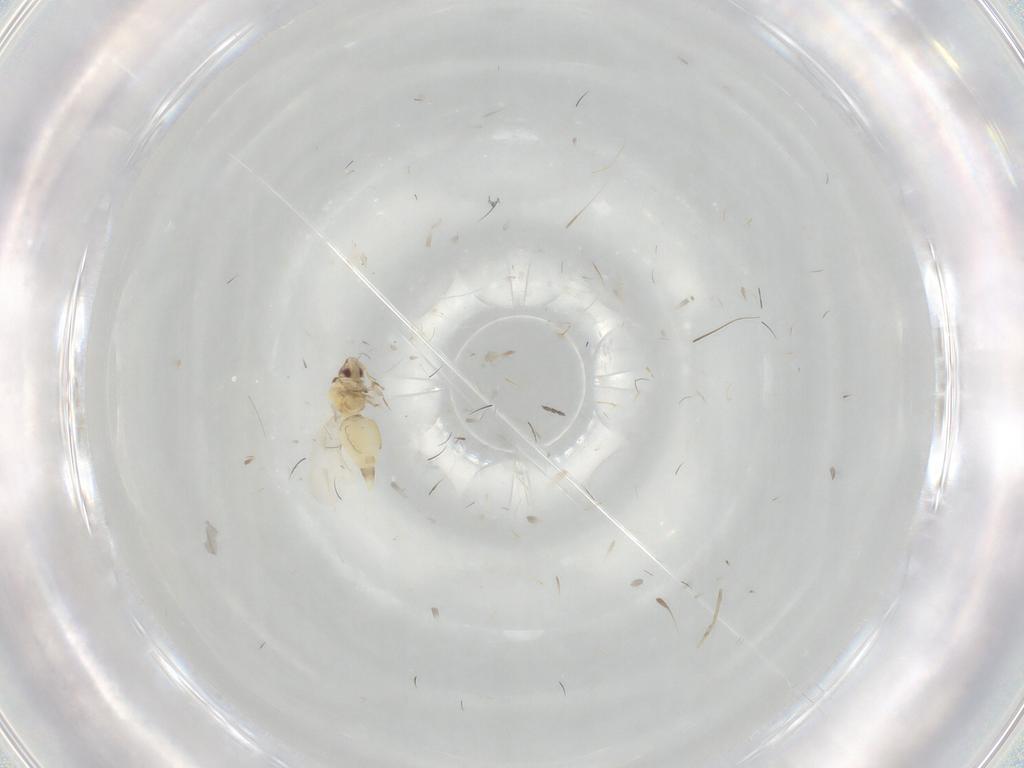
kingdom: Animalia
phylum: Arthropoda
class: Insecta
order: Hemiptera
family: Aleyrodidae
